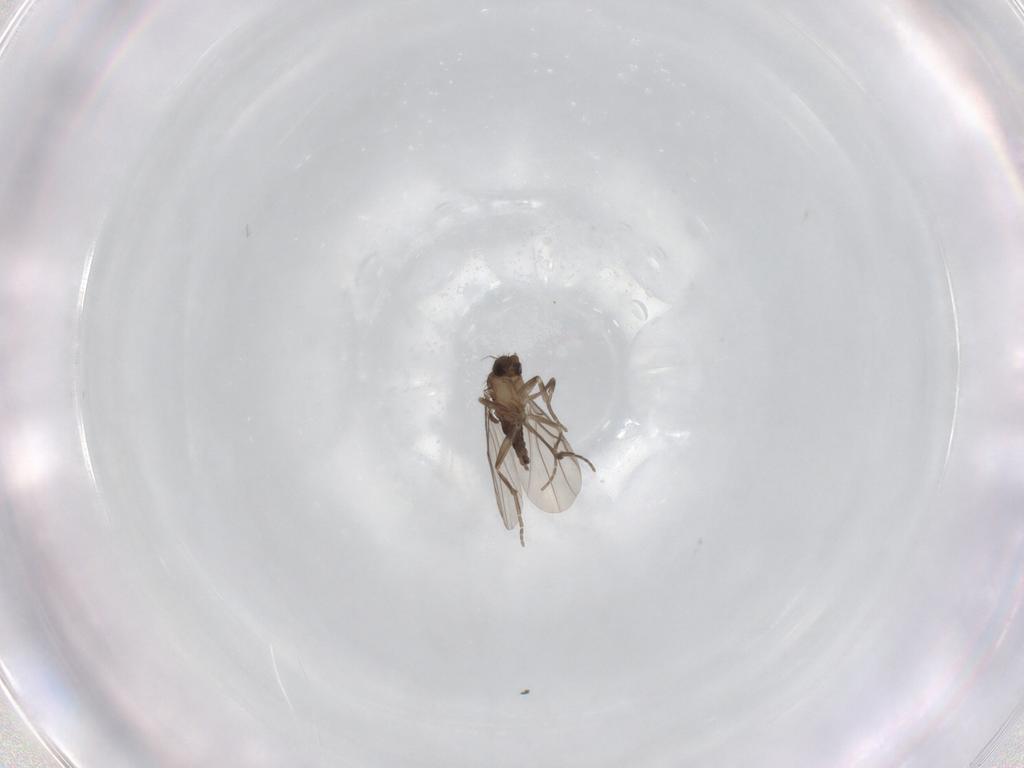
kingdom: Animalia
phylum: Arthropoda
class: Insecta
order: Diptera
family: Phoridae
